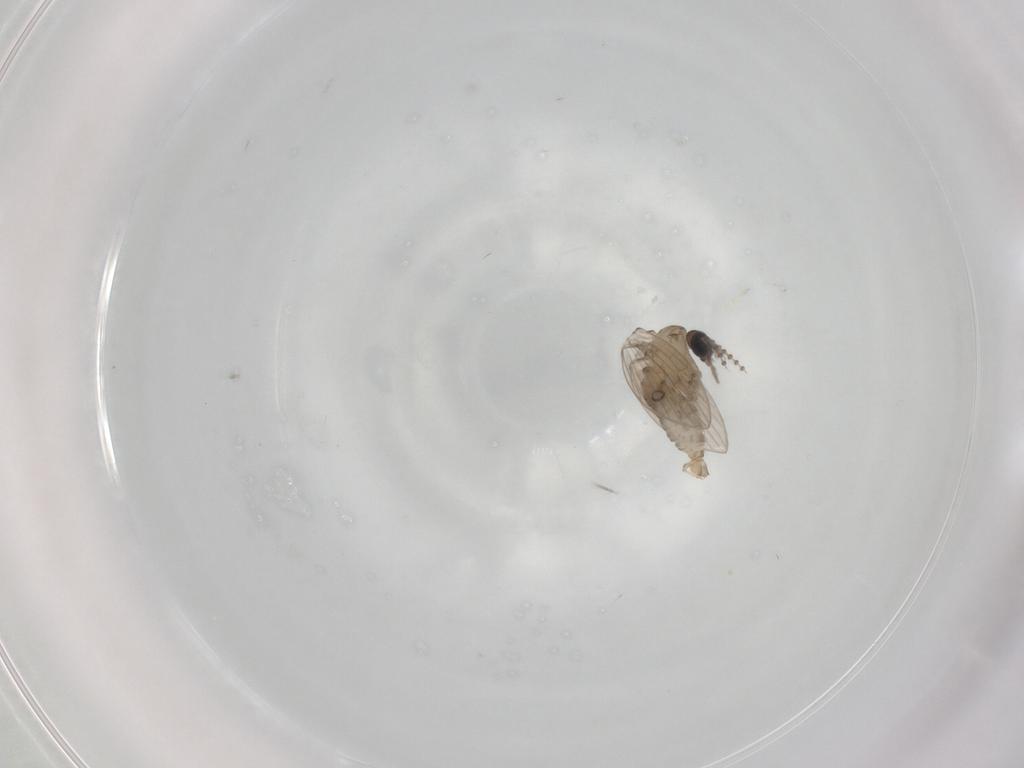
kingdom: Animalia
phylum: Arthropoda
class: Insecta
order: Diptera
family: Psychodidae
